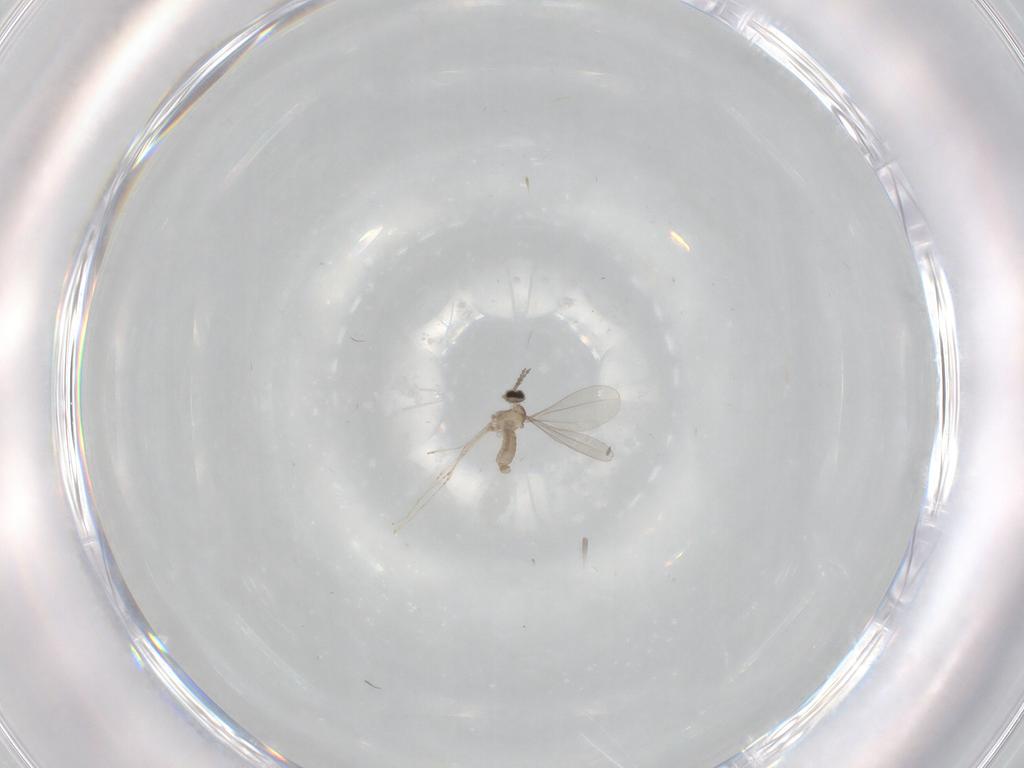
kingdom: Animalia
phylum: Arthropoda
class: Insecta
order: Diptera
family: Cecidomyiidae
